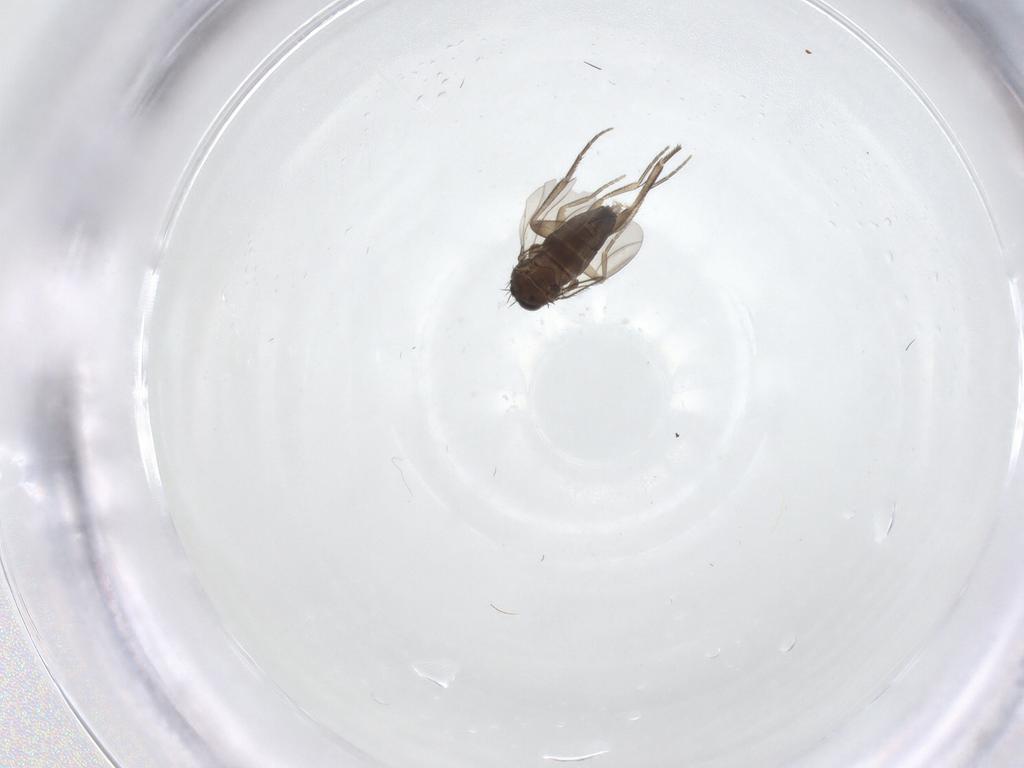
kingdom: Animalia
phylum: Arthropoda
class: Insecta
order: Diptera
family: Phoridae
